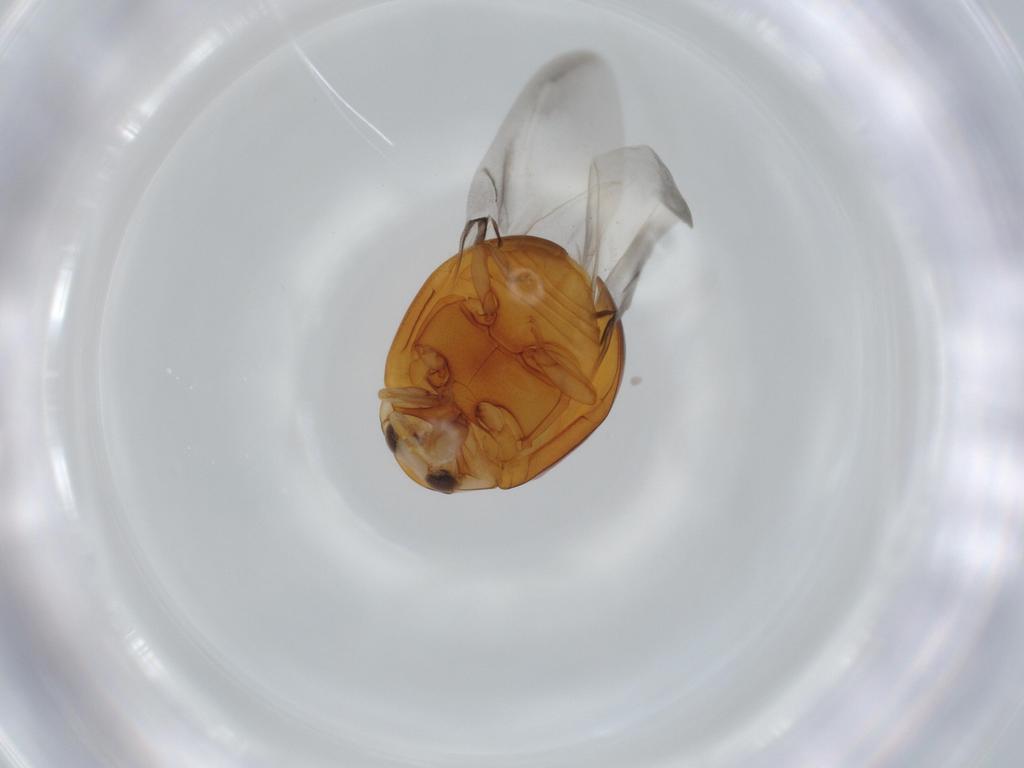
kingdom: Animalia
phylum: Arthropoda
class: Insecta
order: Coleoptera
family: Coccinellidae
